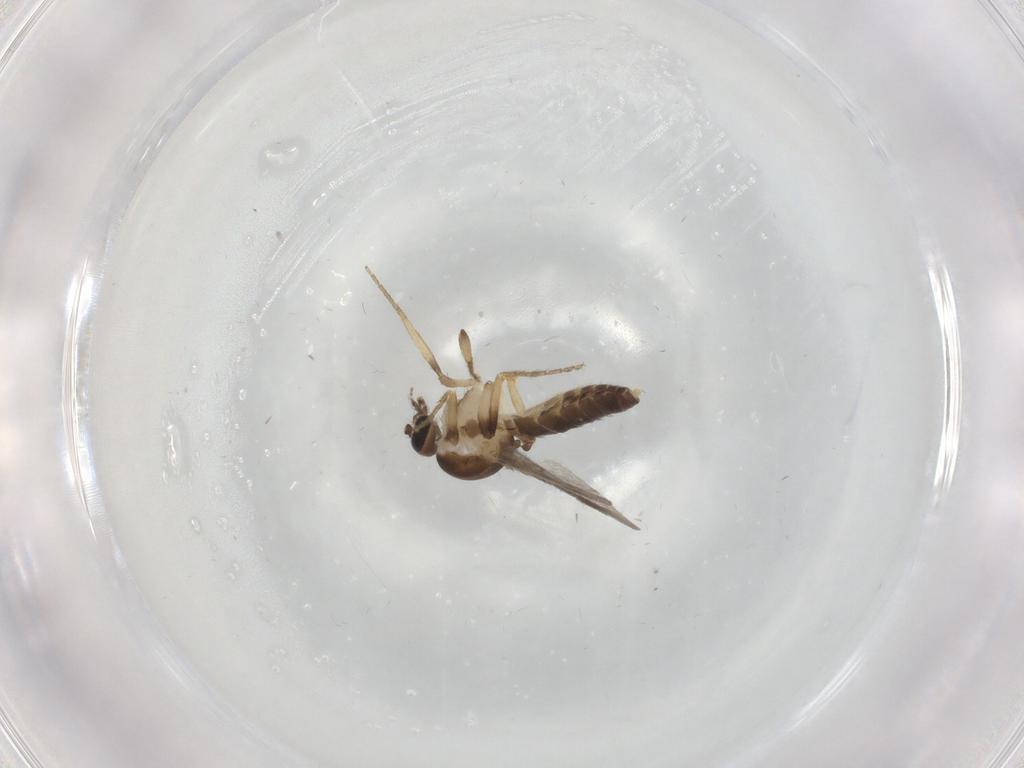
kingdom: Animalia
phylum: Arthropoda
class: Insecta
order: Diptera
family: Ceratopogonidae
